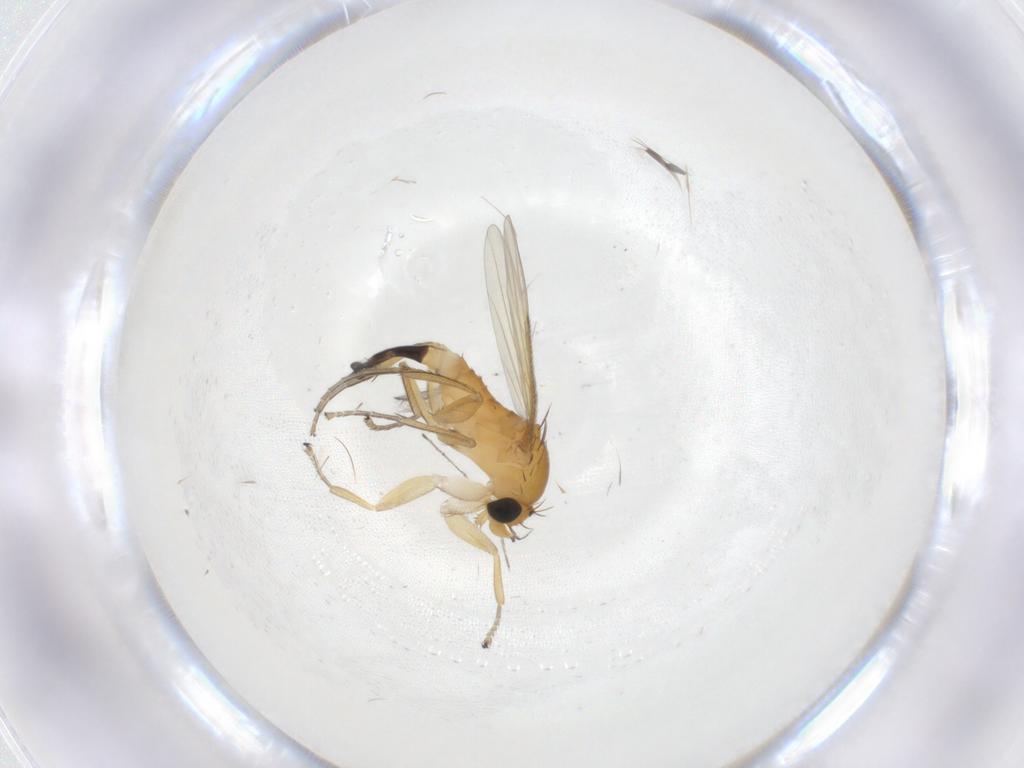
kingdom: Animalia
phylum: Arthropoda
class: Insecta
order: Diptera
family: Phoridae
